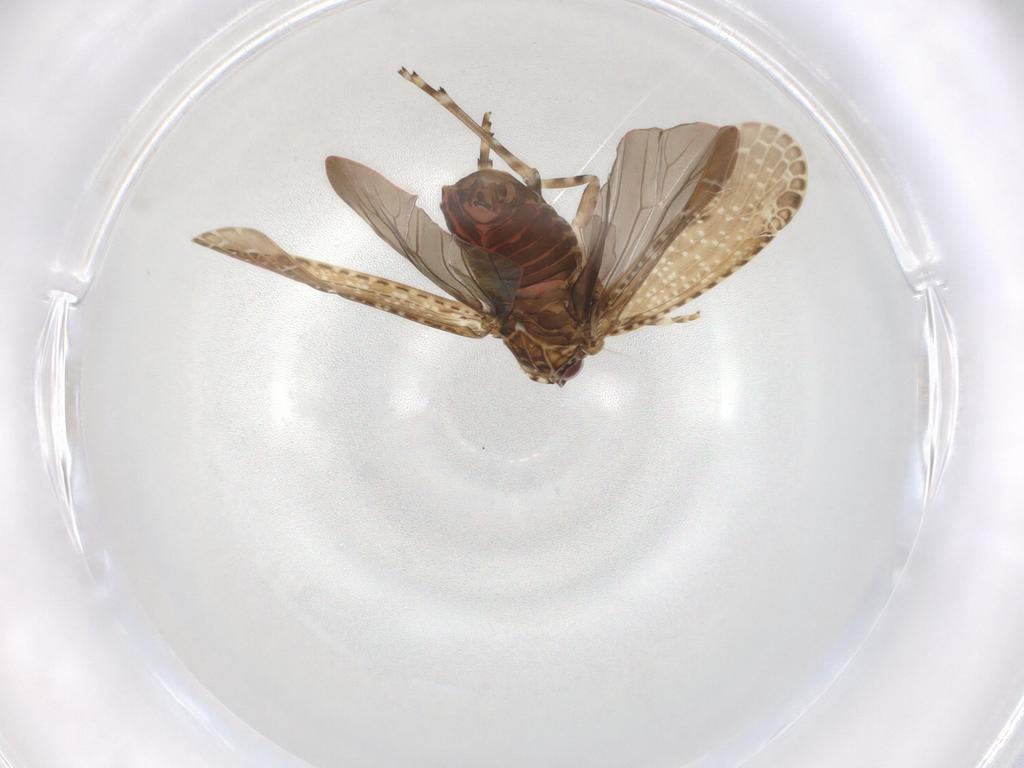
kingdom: Animalia
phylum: Arthropoda
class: Insecta
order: Hemiptera
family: Achilidae
